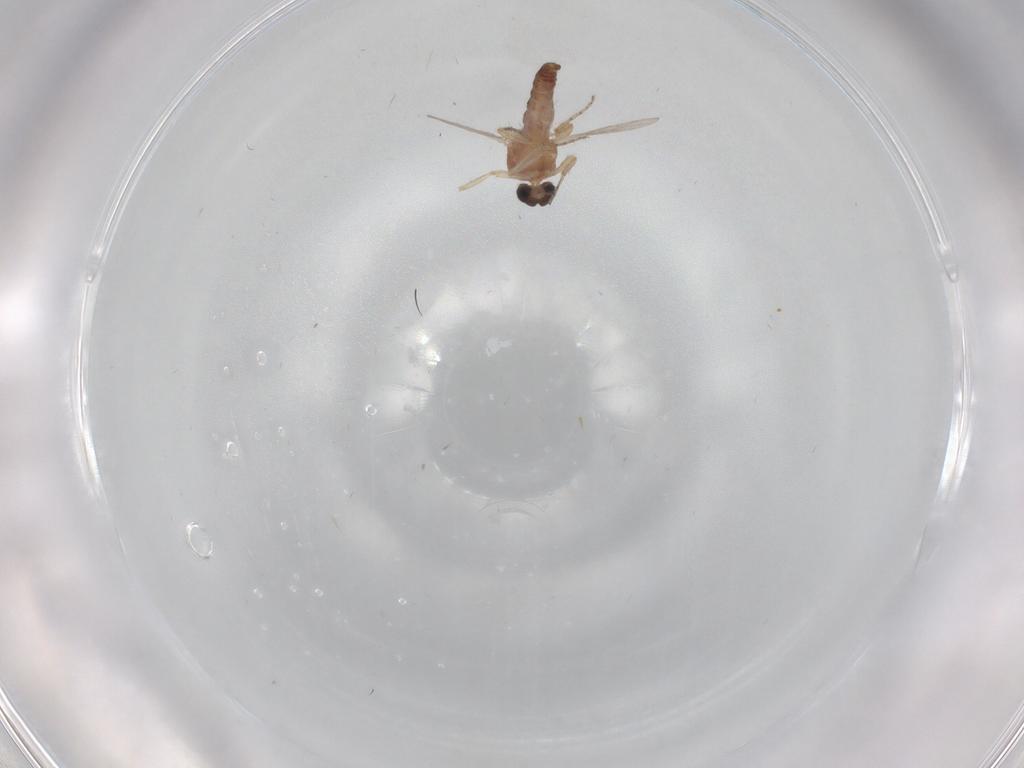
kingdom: Animalia
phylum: Arthropoda
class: Insecta
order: Diptera
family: Ceratopogonidae
